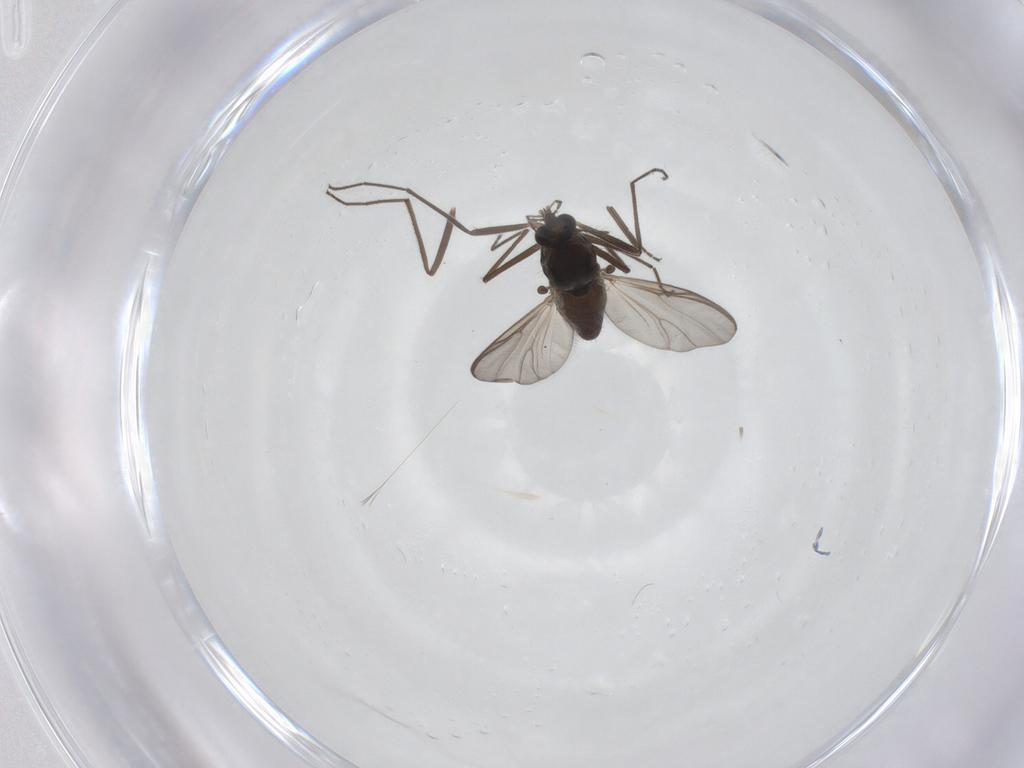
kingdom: Animalia
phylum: Arthropoda
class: Insecta
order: Diptera
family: Chironomidae
